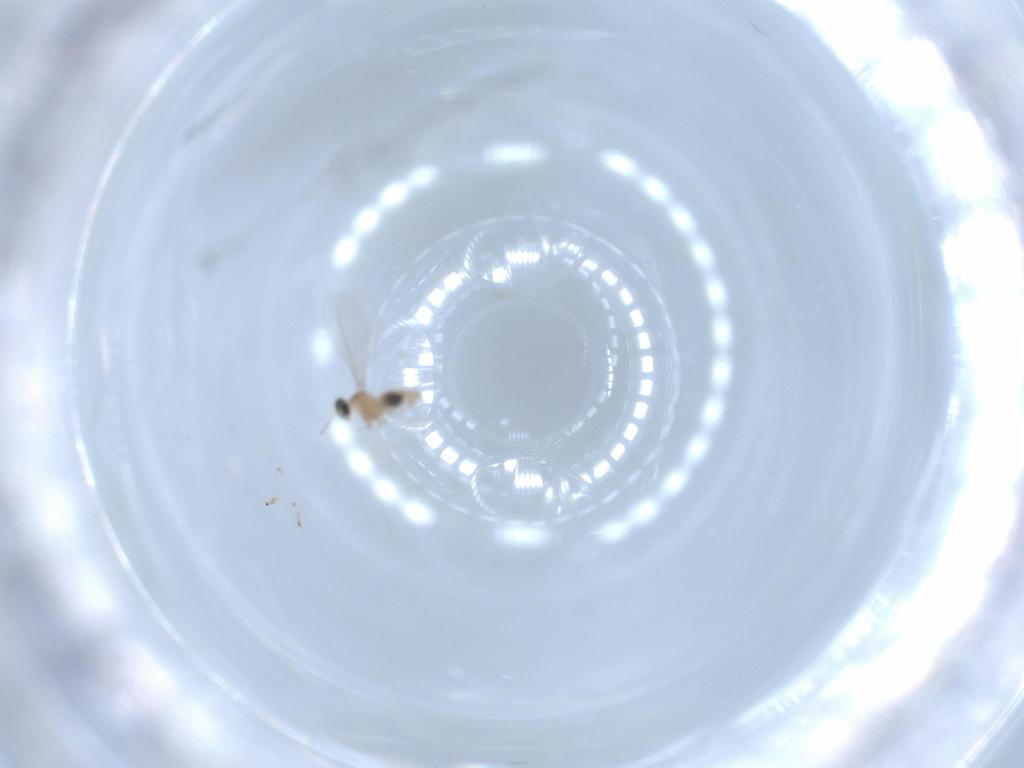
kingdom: Animalia
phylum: Arthropoda
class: Insecta
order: Diptera
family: Cecidomyiidae
